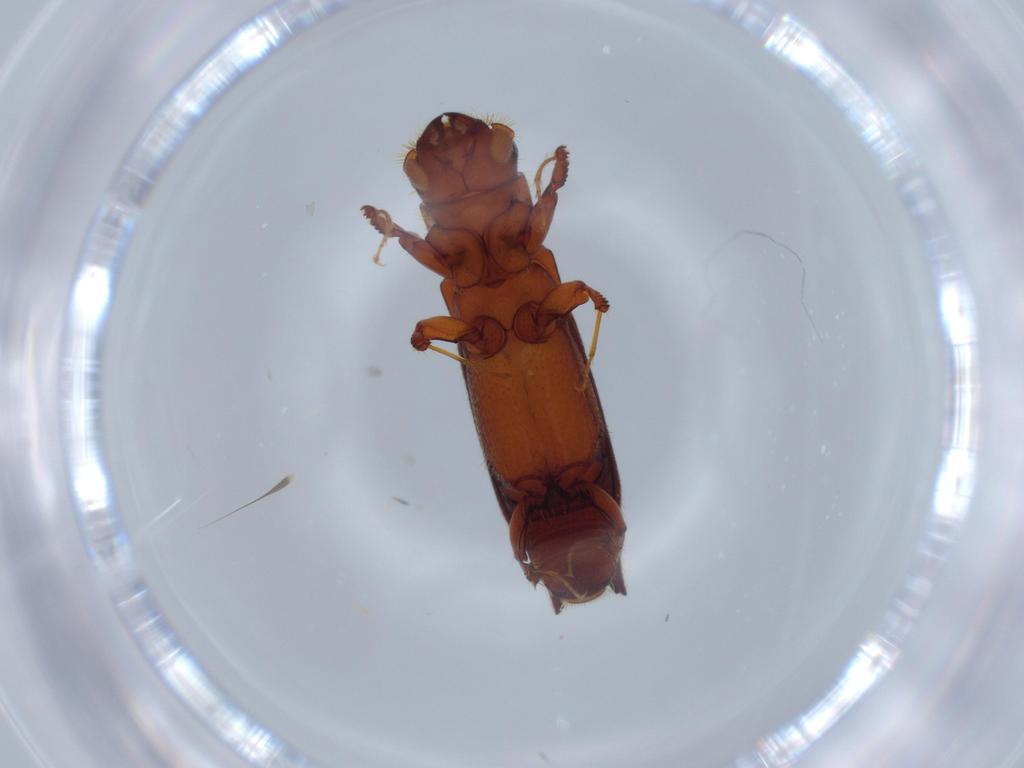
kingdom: Animalia
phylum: Arthropoda
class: Insecta
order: Coleoptera
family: Curculionidae
